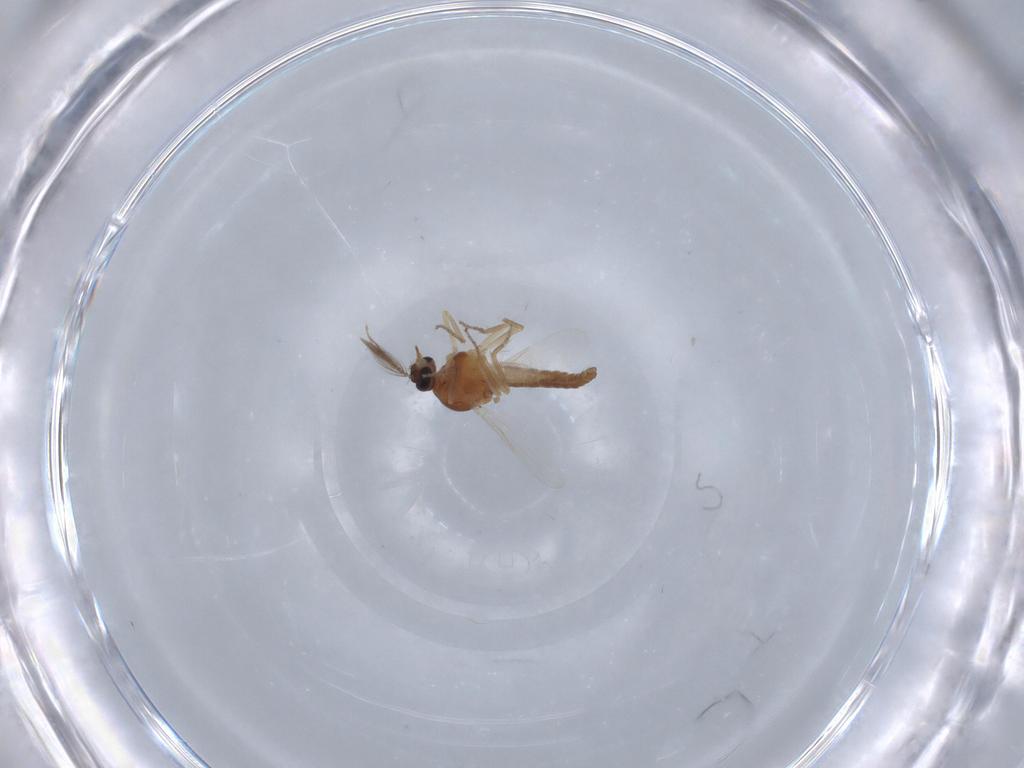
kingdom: Animalia
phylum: Arthropoda
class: Insecta
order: Diptera
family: Ceratopogonidae
